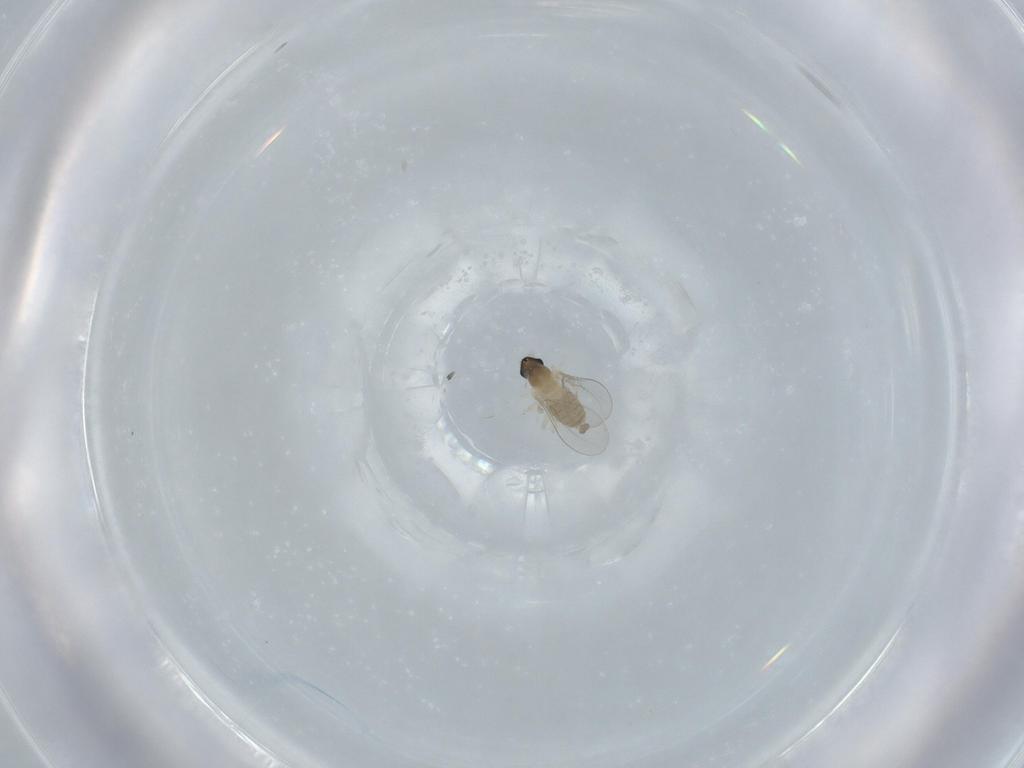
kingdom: Animalia
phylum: Arthropoda
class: Insecta
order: Diptera
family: Cecidomyiidae
